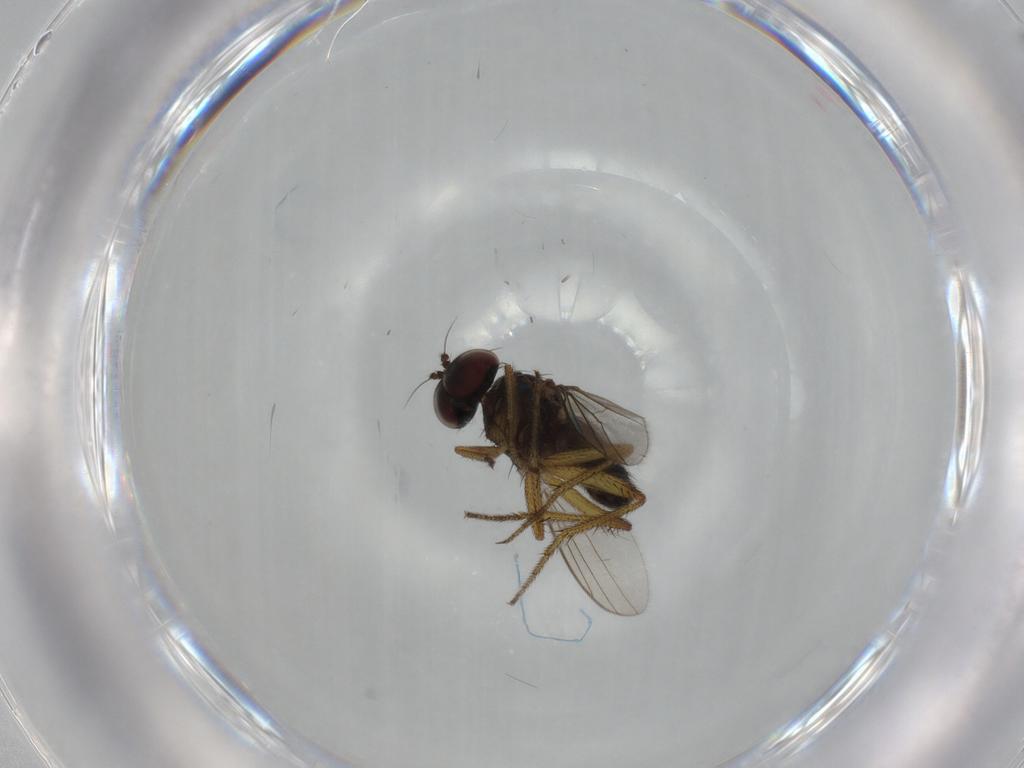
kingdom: Animalia
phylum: Arthropoda
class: Insecta
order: Diptera
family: Dolichopodidae
